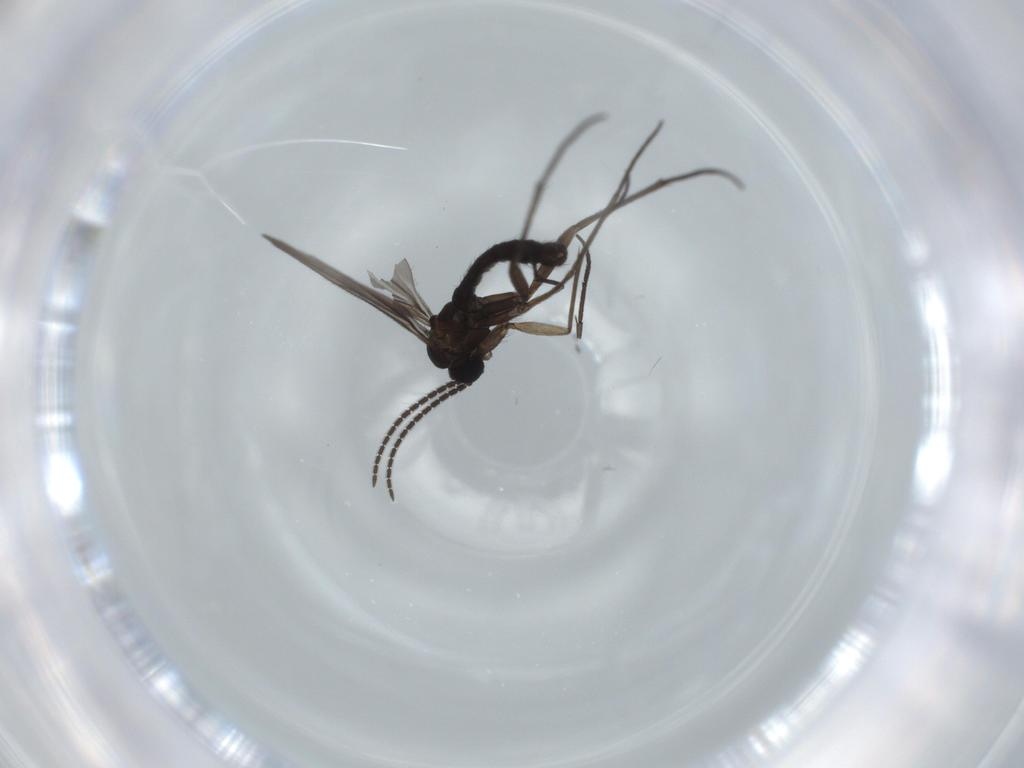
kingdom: Animalia
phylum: Arthropoda
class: Insecta
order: Diptera
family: Sciaridae
